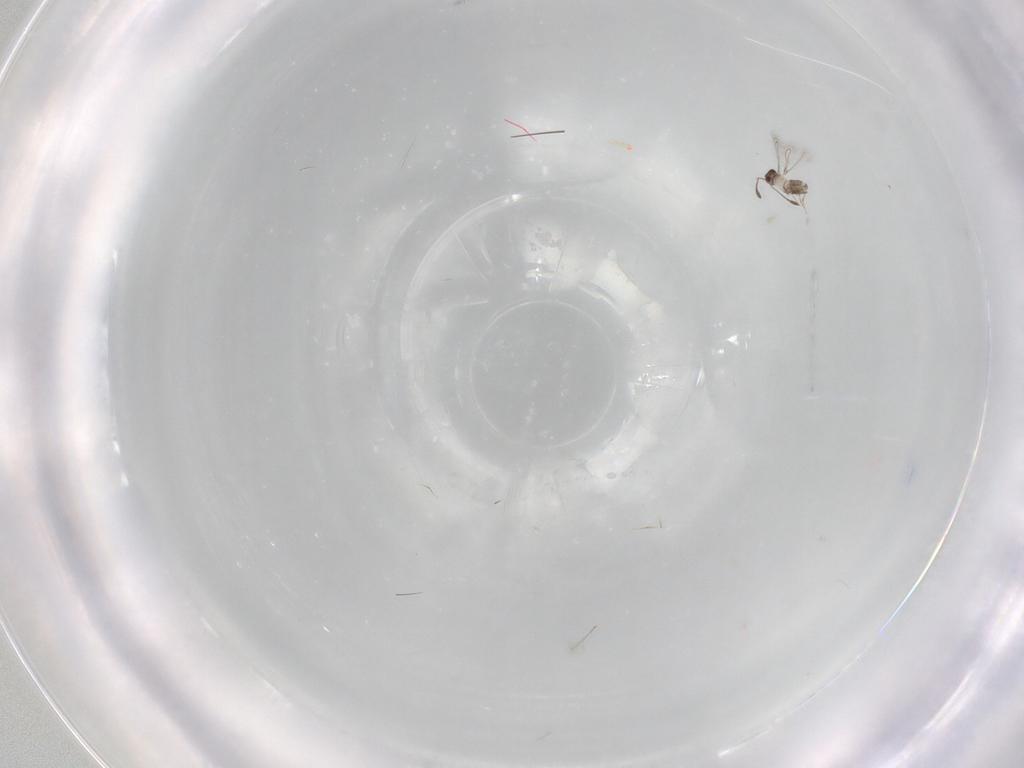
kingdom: Animalia
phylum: Arthropoda
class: Insecta
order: Hymenoptera
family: Mymaridae
